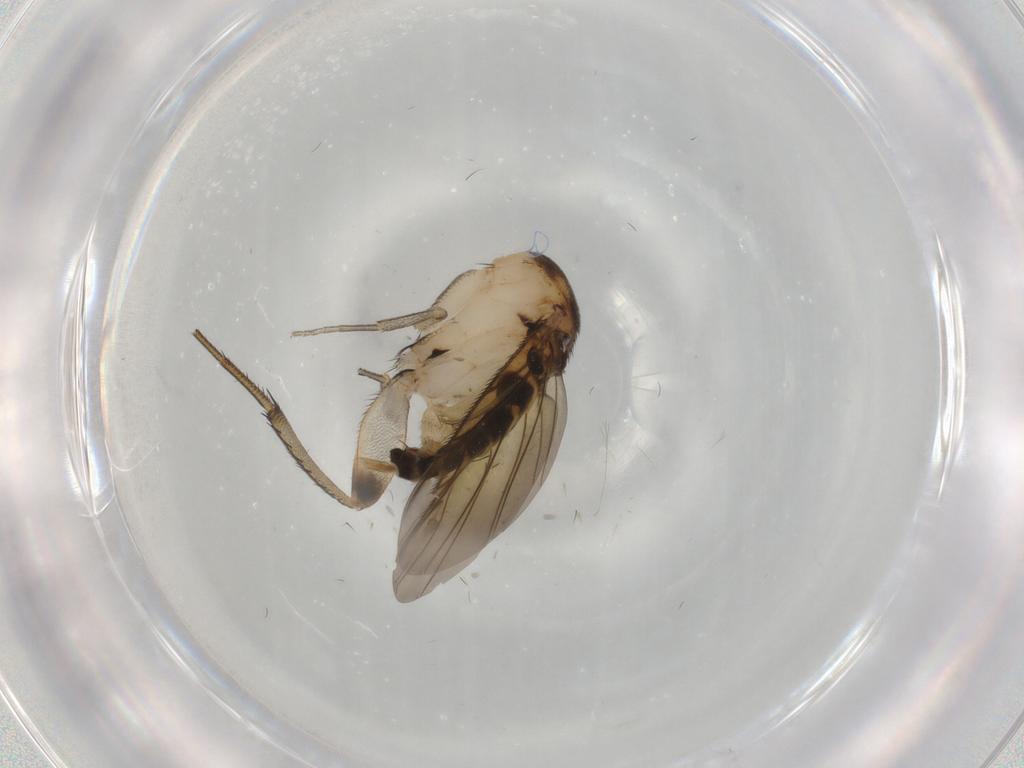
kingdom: Animalia
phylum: Arthropoda
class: Insecta
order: Diptera
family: Phoridae
